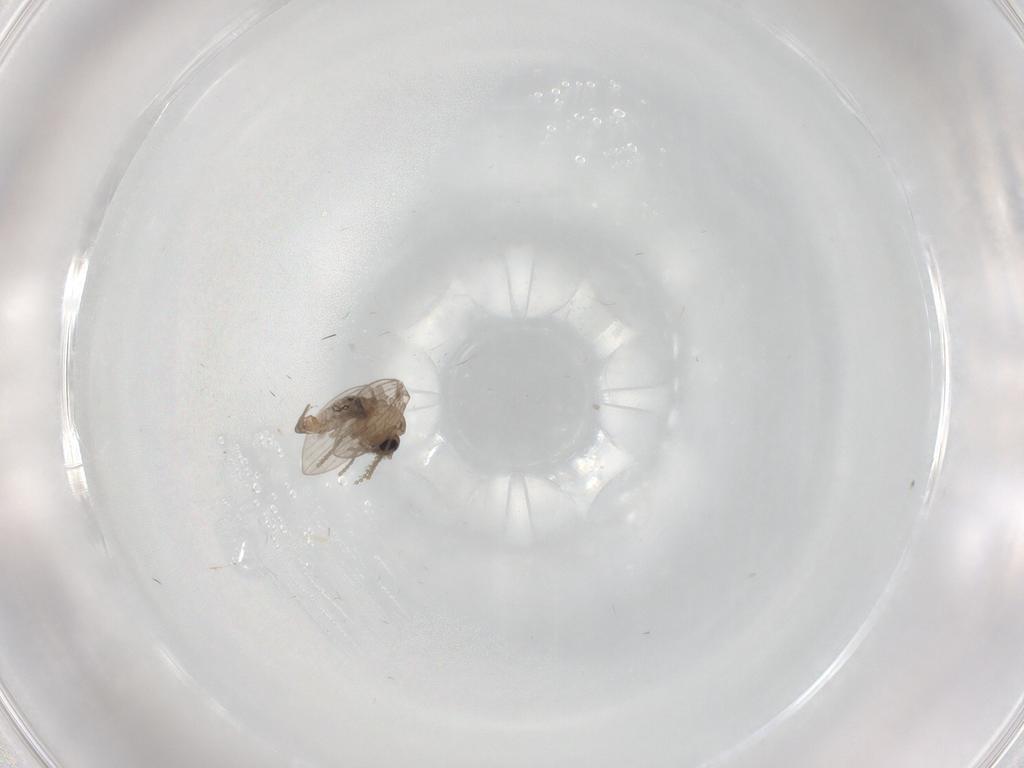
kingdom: Animalia
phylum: Arthropoda
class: Insecta
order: Diptera
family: Psychodidae
